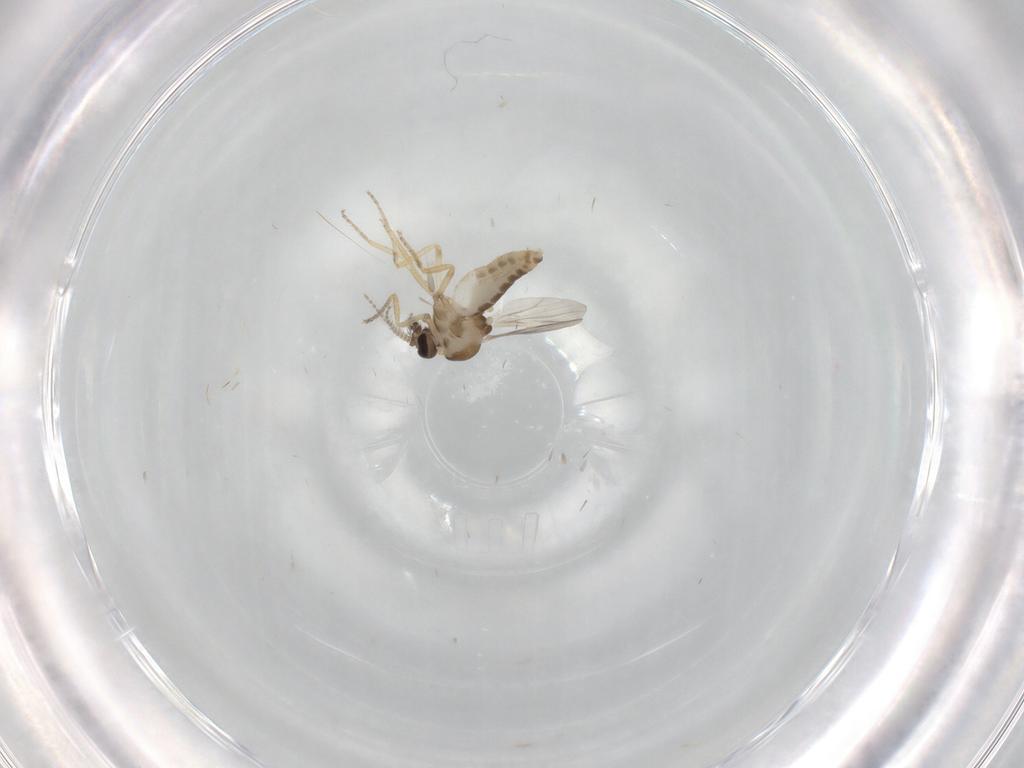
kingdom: Animalia
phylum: Arthropoda
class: Insecta
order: Diptera
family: Ceratopogonidae
